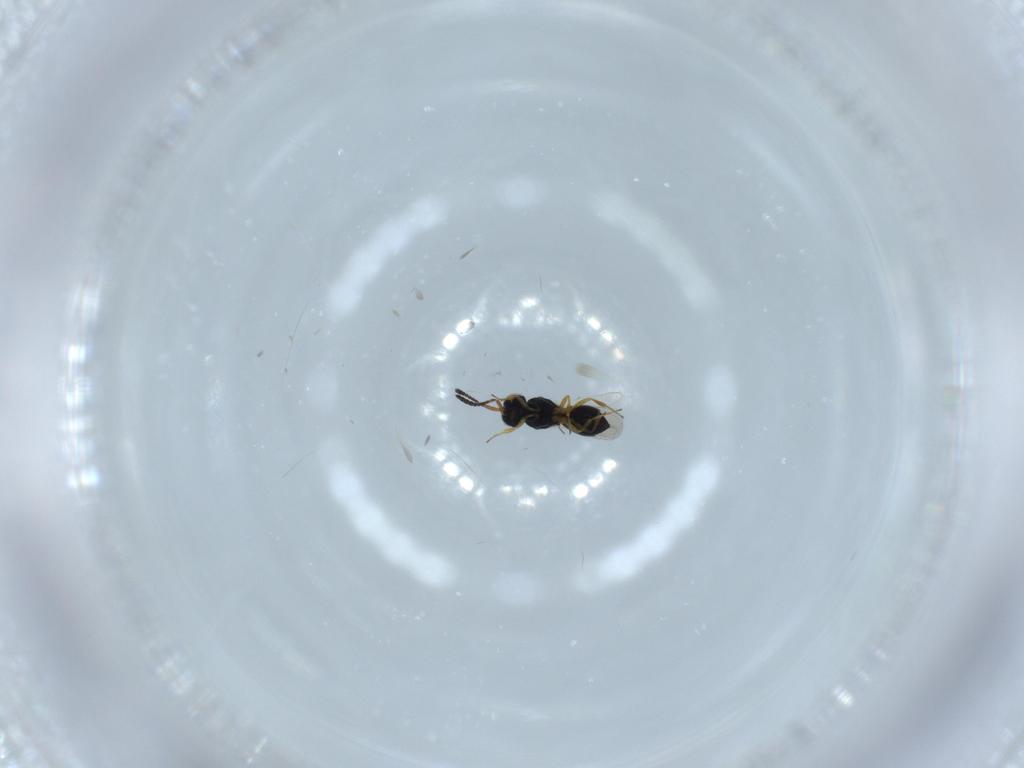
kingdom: Animalia
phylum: Arthropoda
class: Insecta
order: Hymenoptera
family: Scelionidae
